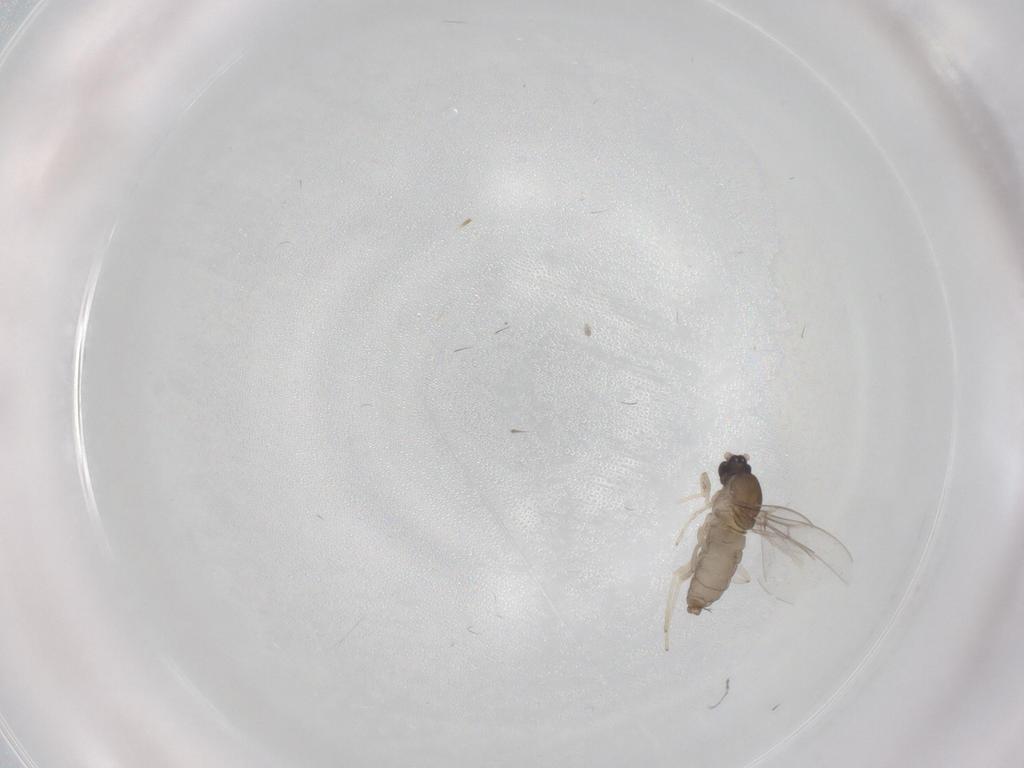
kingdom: Animalia
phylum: Arthropoda
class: Insecta
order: Diptera
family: Cecidomyiidae
